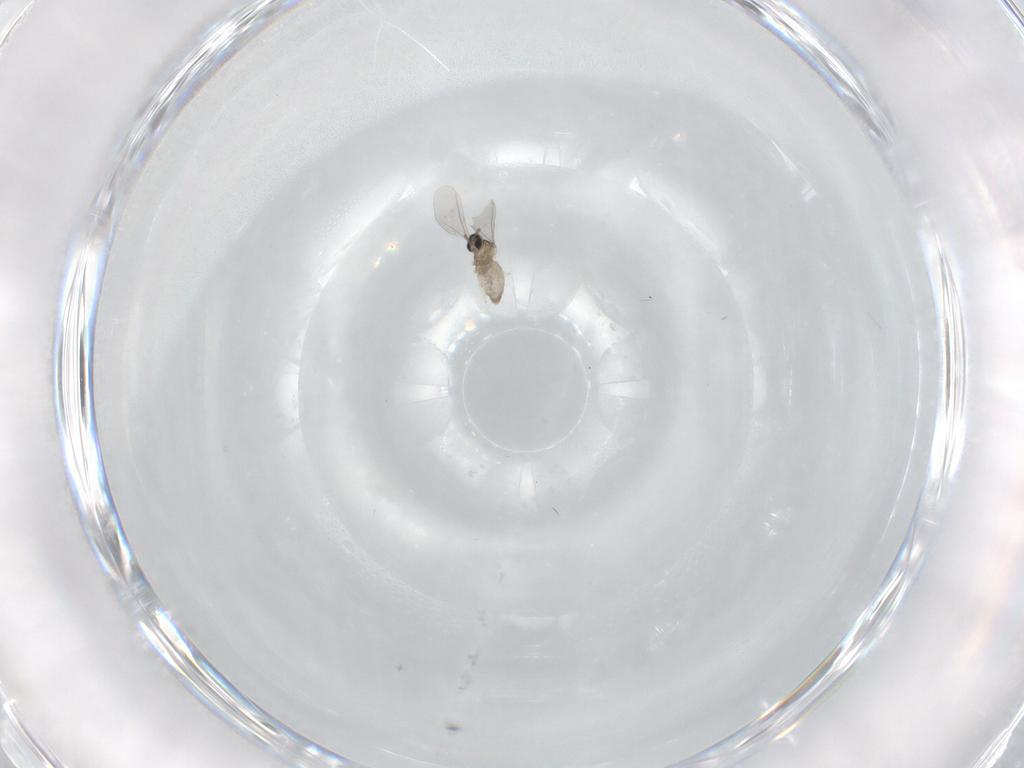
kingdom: Animalia
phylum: Arthropoda
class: Insecta
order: Diptera
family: Cecidomyiidae
